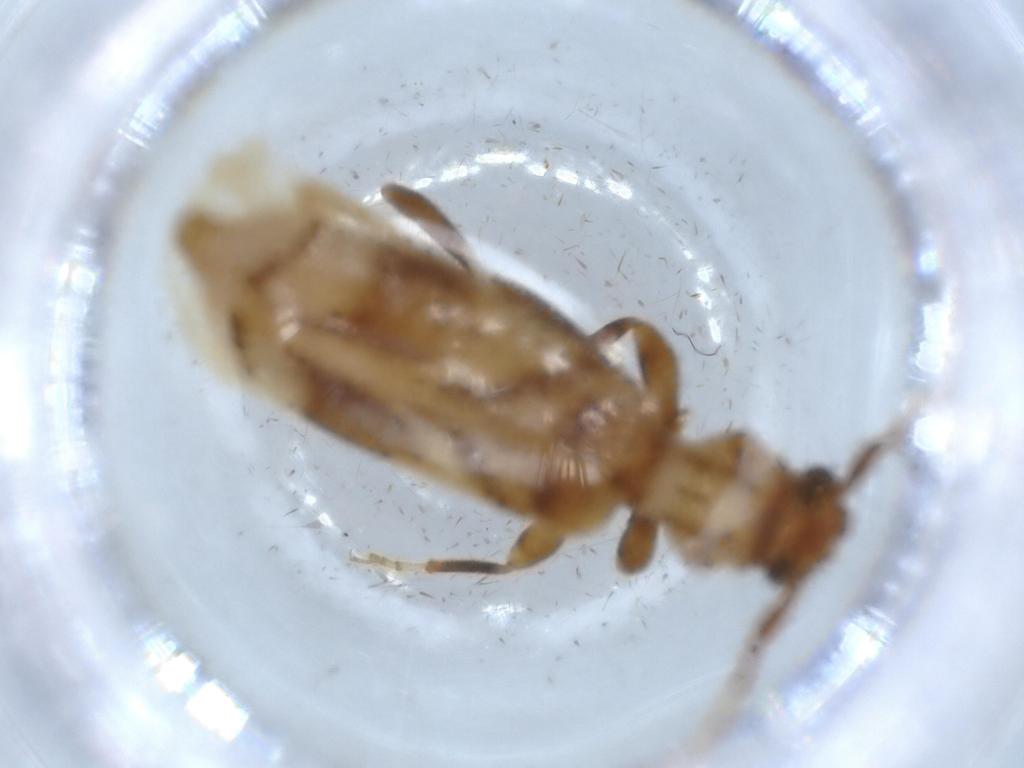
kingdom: Animalia
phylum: Arthropoda
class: Insecta
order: Coleoptera
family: Cerambycidae
